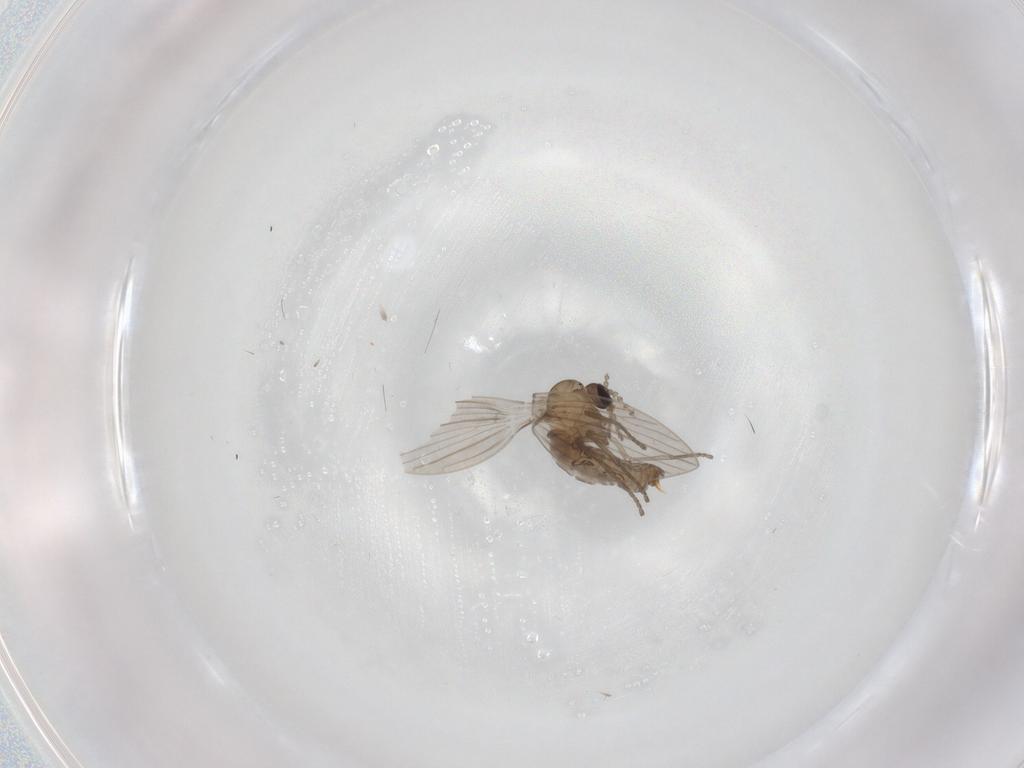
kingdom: Animalia
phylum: Arthropoda
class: Insecta
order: Diptera
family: Psychodidae
